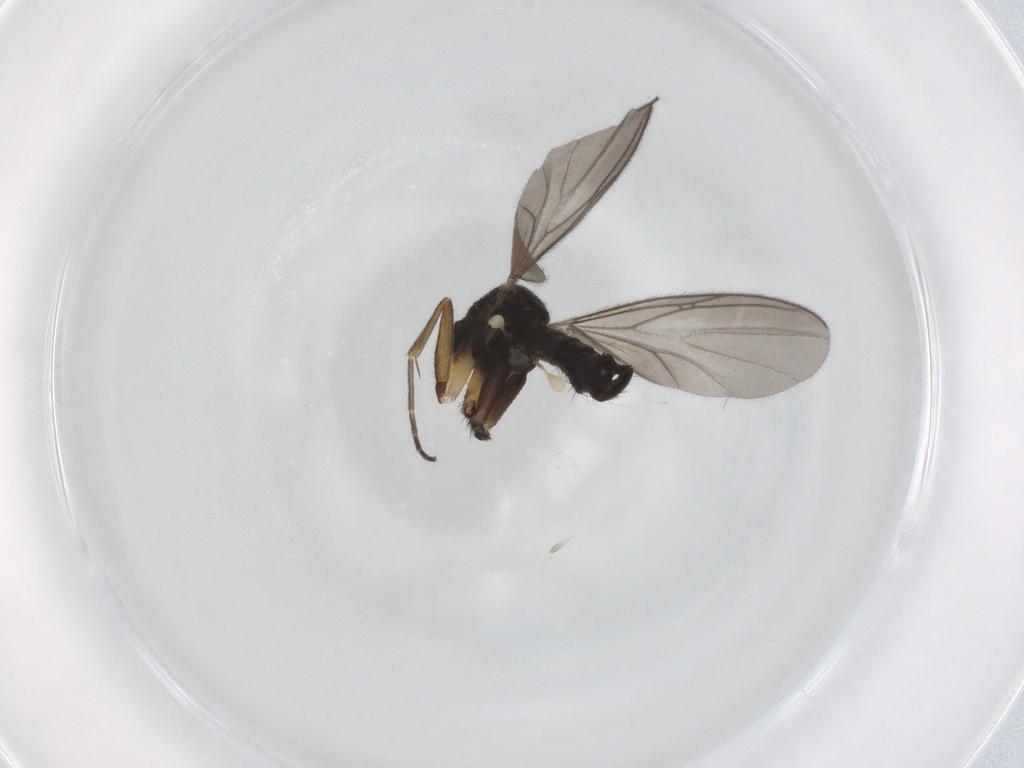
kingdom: Animalia
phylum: Arthropoda
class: Insecta
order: Diptera
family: Mycetophilidae
